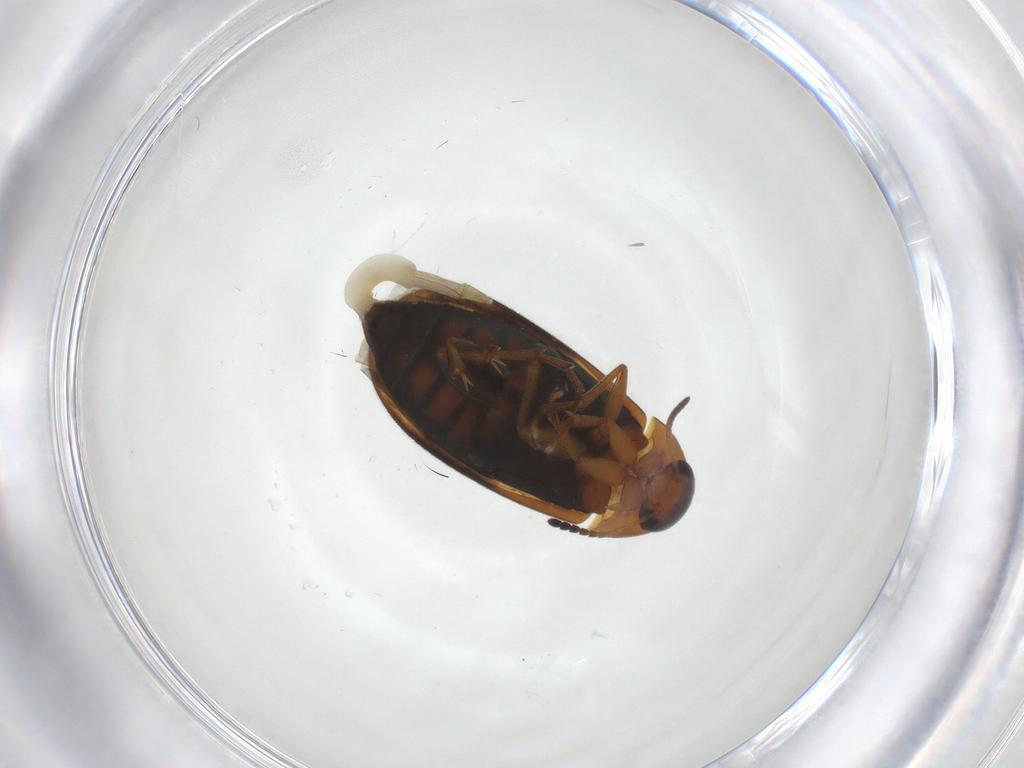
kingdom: Animalia
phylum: Arthropoda
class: Insecta
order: Coleoptera
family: Scraptiidae
